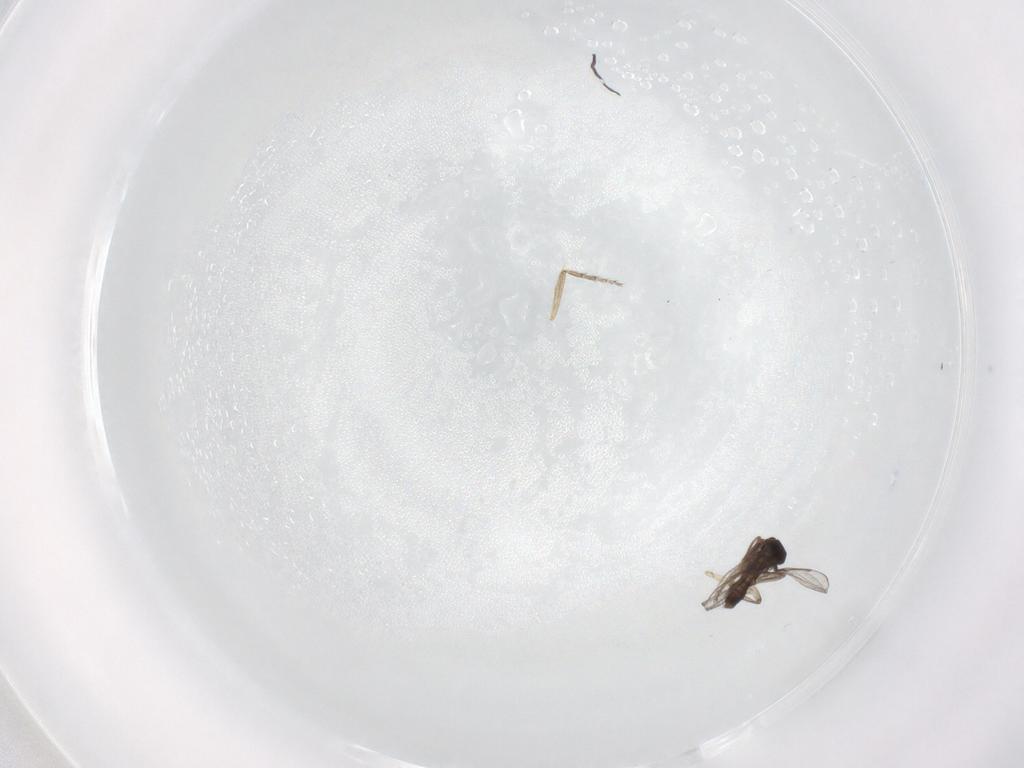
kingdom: Animalia
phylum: Arthropoda
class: Insecta
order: Diptera
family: Ceratopogonidae
